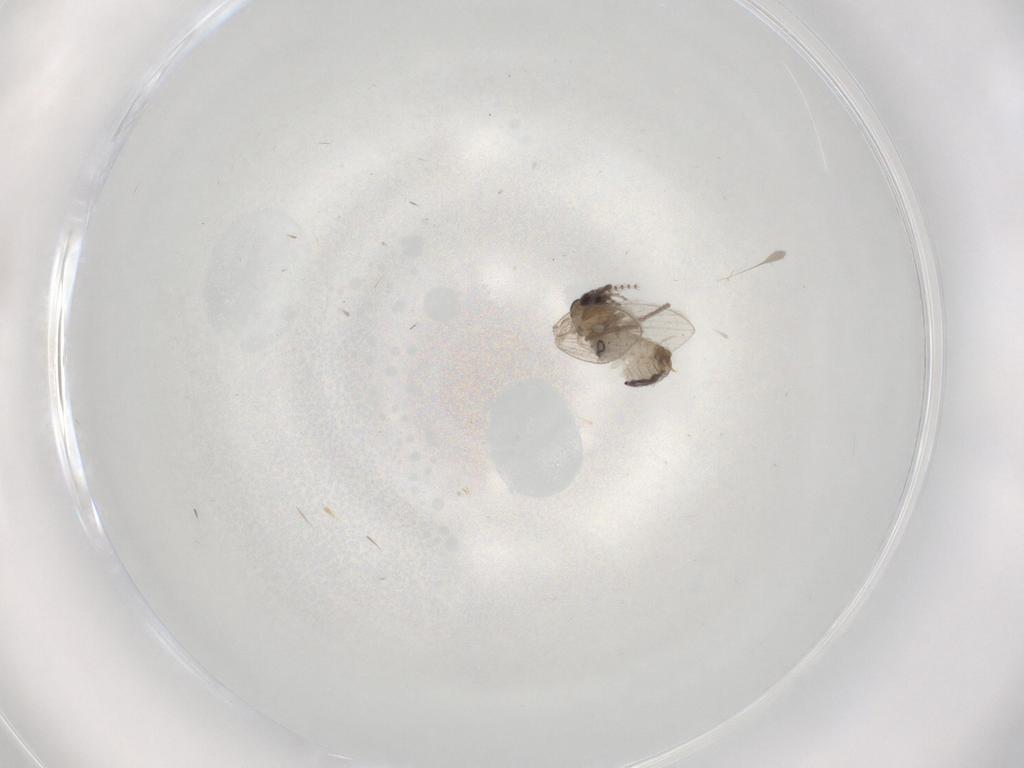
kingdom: Animalia
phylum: Arthropoda
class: Insecta
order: Diptera
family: Psychodidae
